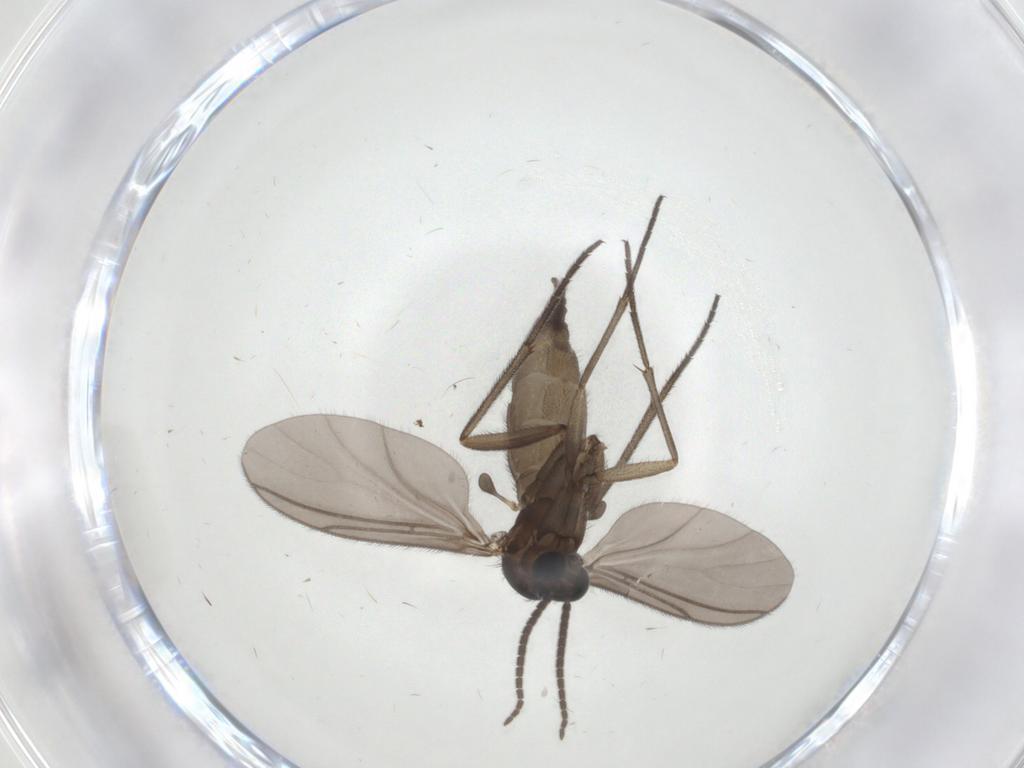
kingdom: Animalia
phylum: Arthropoda
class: Insecta
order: Diptera
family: Sciaridae
